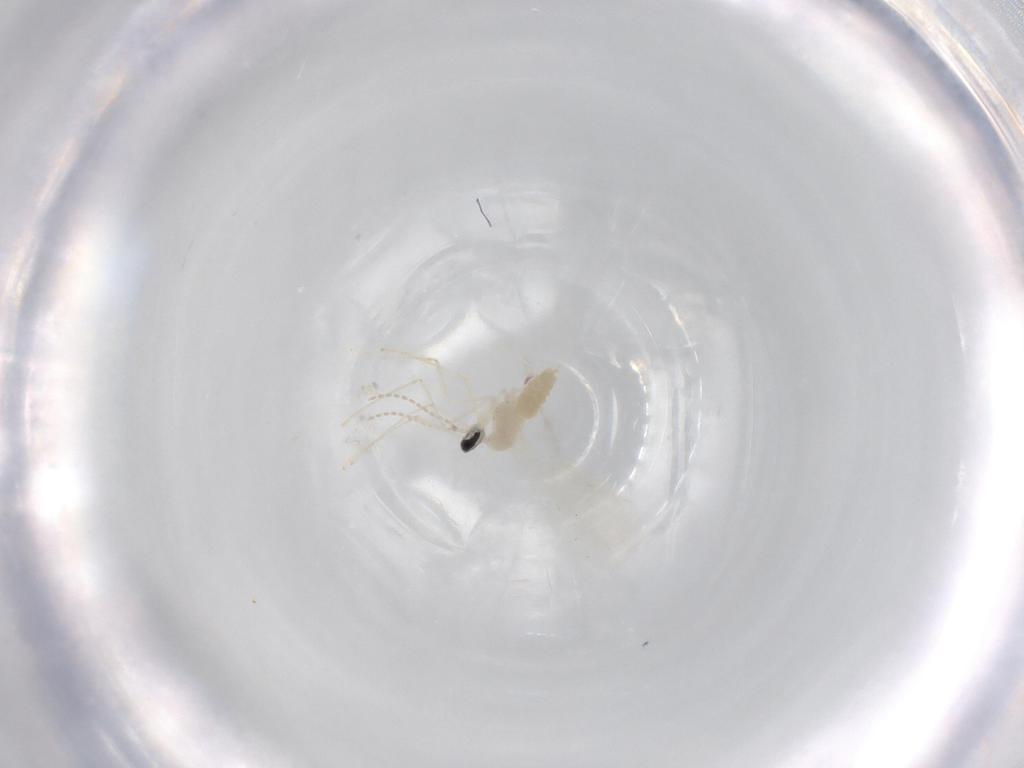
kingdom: Animalia
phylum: Arthropoda
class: Insecta
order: Diptera
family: Cecidomyiidae
